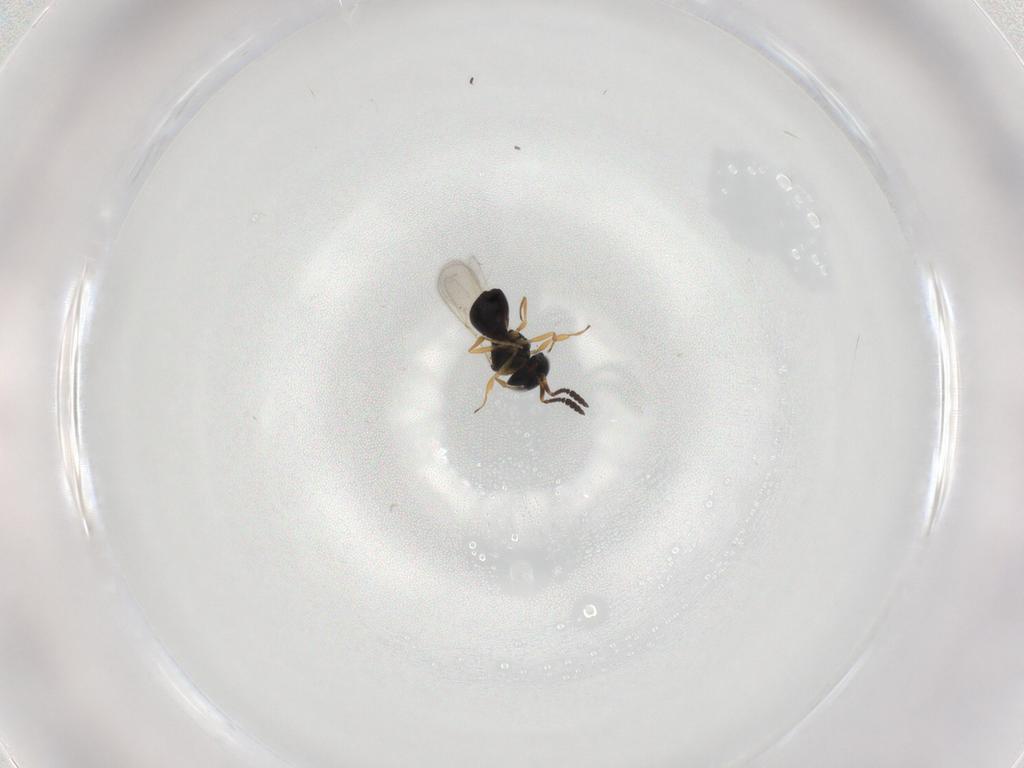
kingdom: Animalia
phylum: Arthropoda
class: Insecta
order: Hymenoptera
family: Scelionidae
